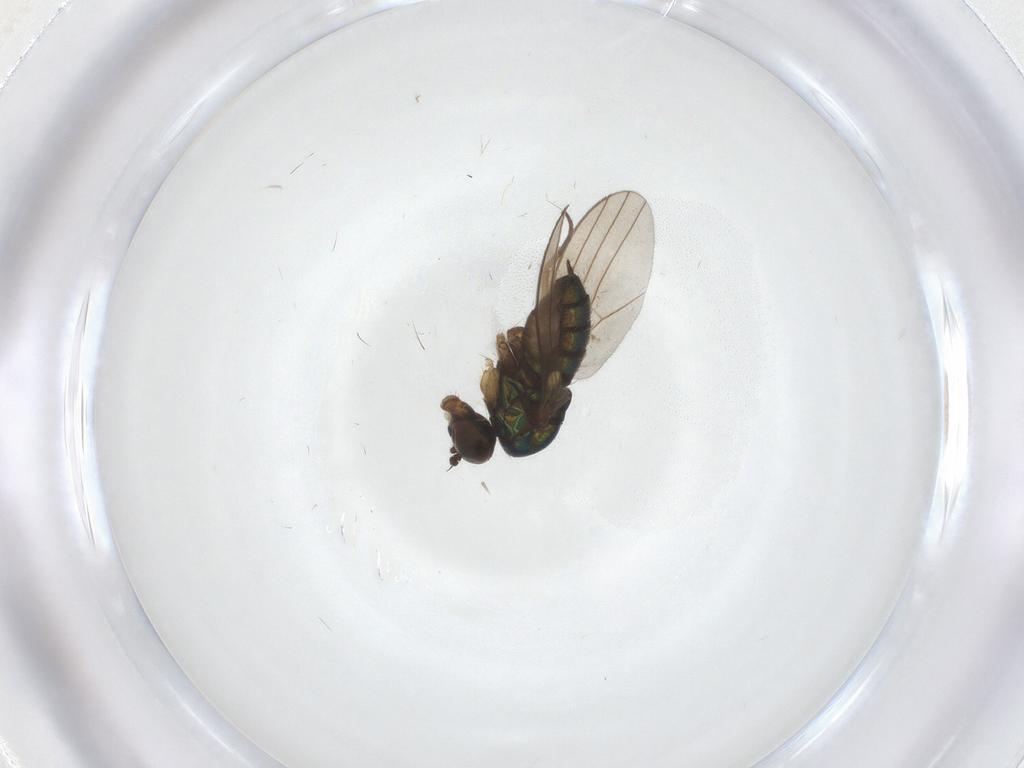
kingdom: Animalia
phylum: Arthropoda
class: Insecta
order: Diptera
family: Dolichopodidae
